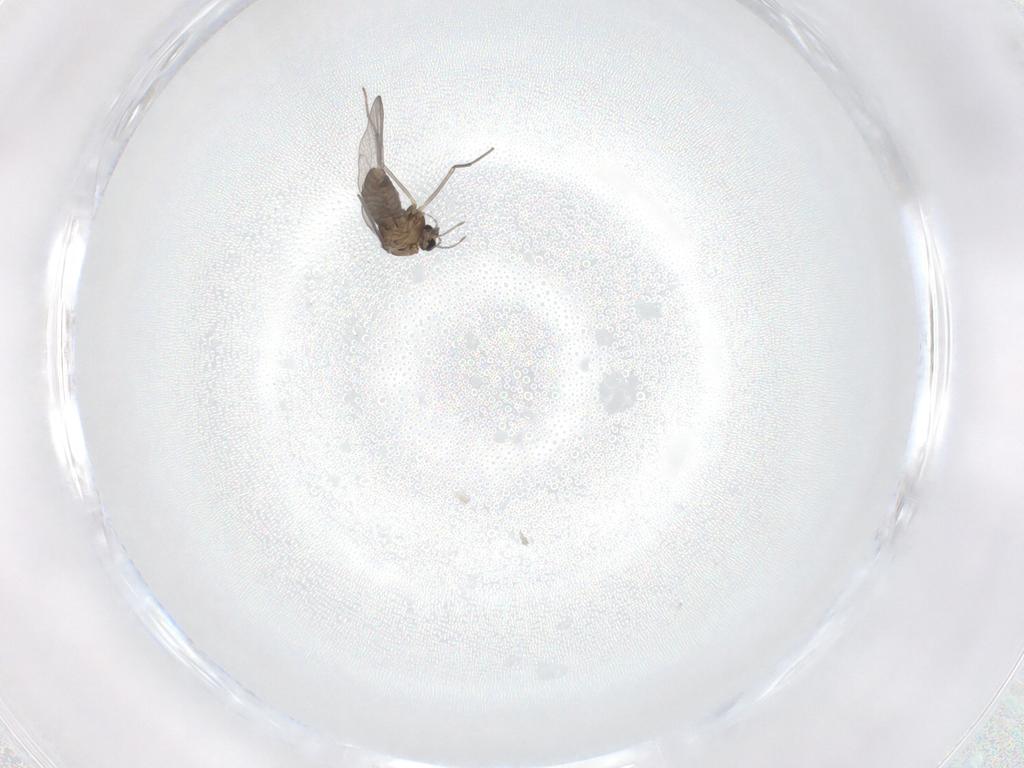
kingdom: Animalia
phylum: Arthropoda
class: Insecta
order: Diptera
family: Chironomidae
